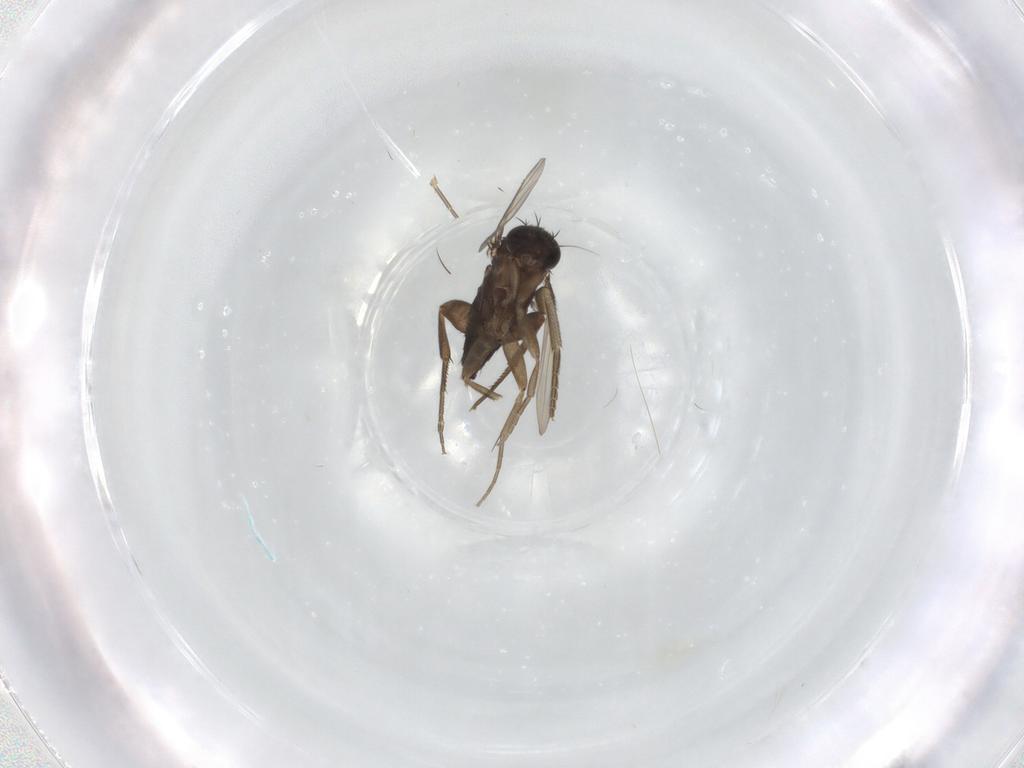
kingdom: Animalia
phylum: Arthropoda
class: Insecta
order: Diptera
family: Phoridae
